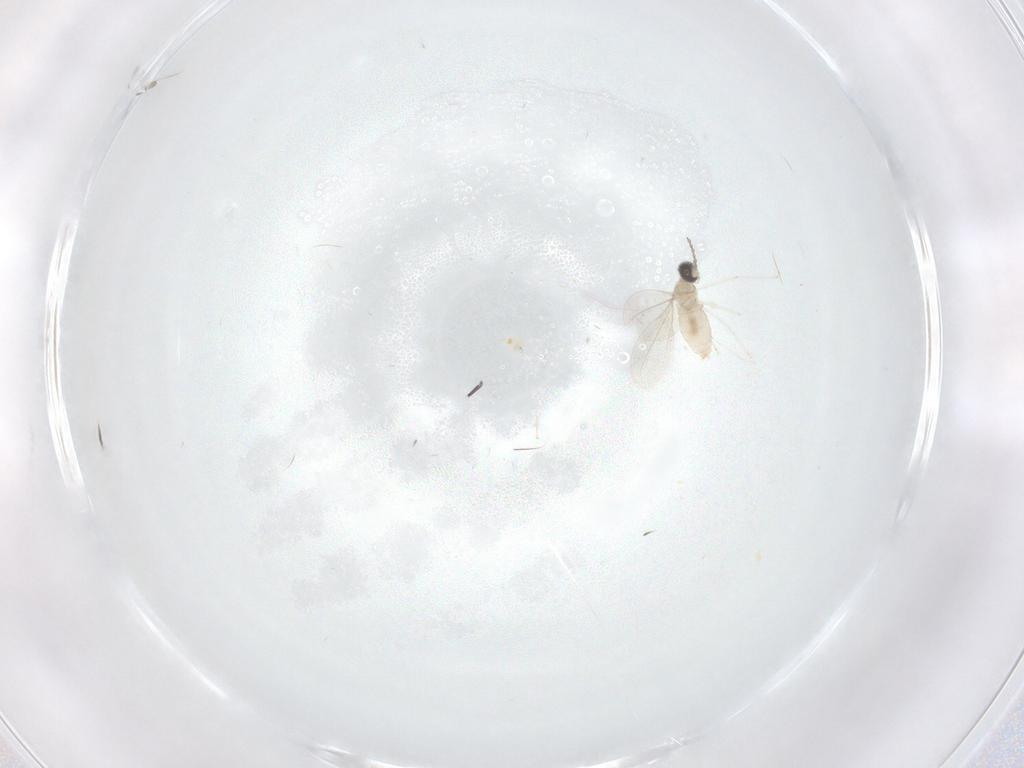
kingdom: Animalia
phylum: Arthropoda
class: Insecta
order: Diptera
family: Cecidomyiidae
